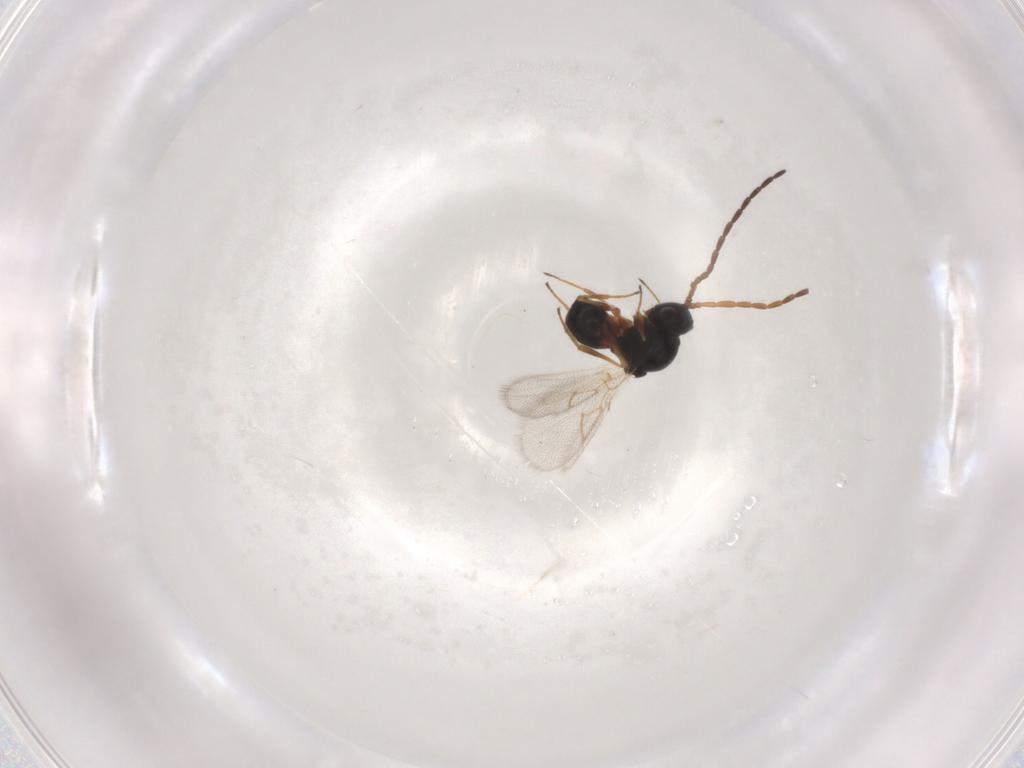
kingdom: Animalia
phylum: Arthropoda
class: Insecta
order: Hymenoptera
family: Figitidae
